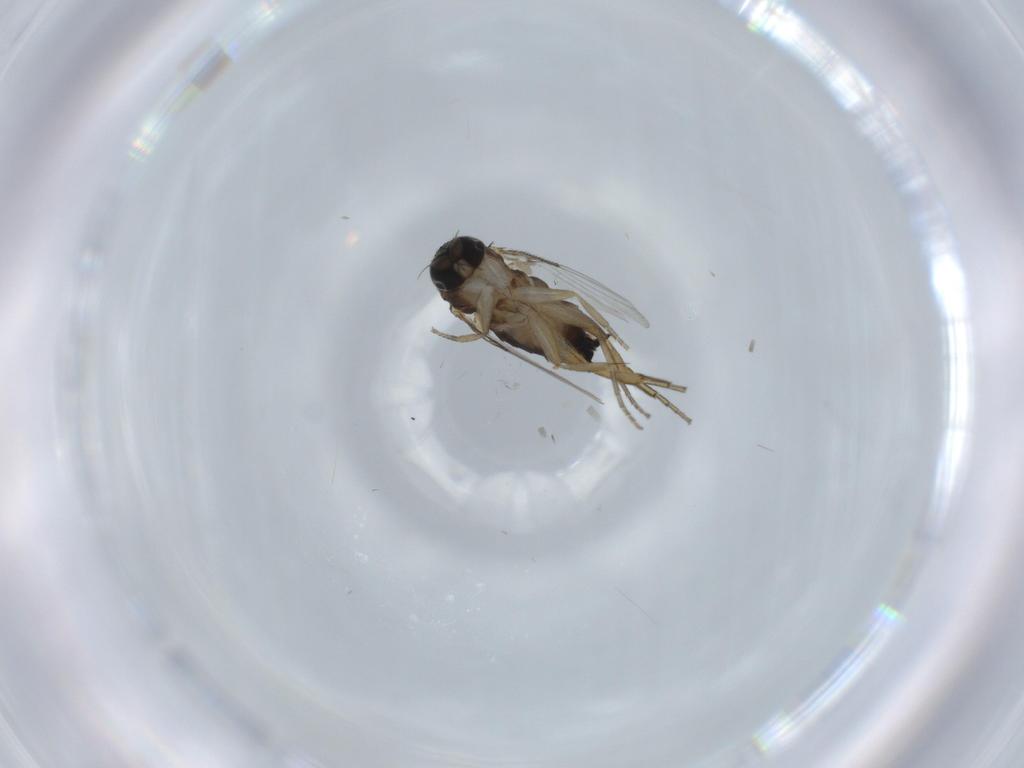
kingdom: Animalia
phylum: Arthropoda
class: Insecta
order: Diptera
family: Phoridae
